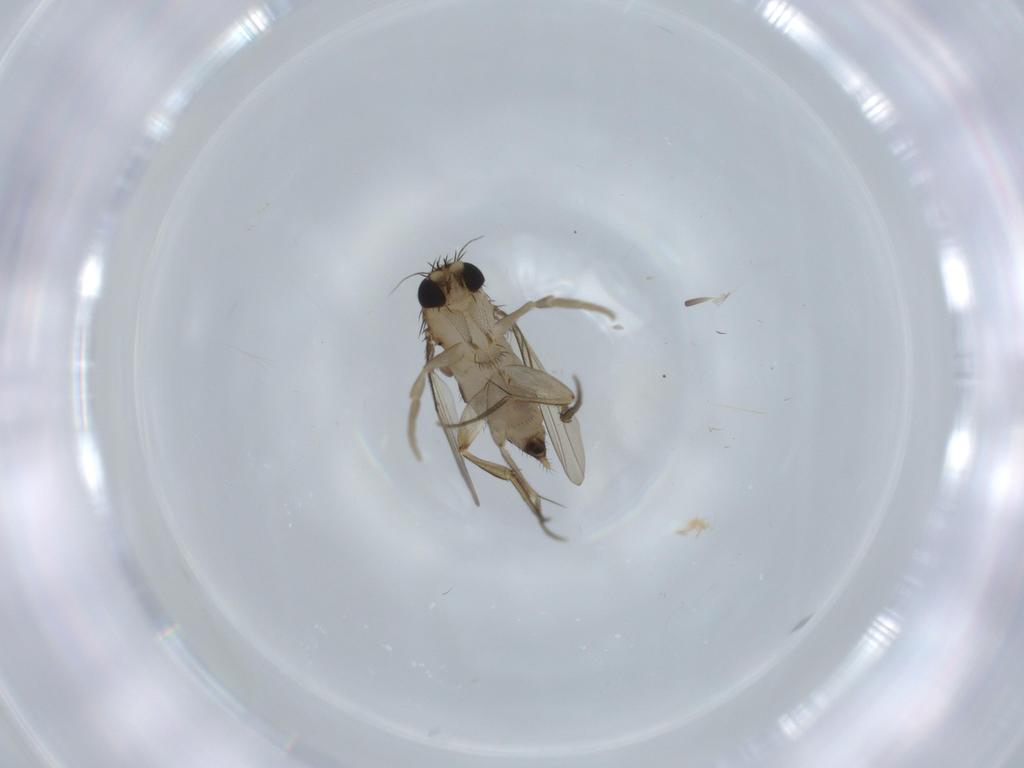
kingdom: Animalia
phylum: Arthropoda
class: Insecta
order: Diptera
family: Phoridae
